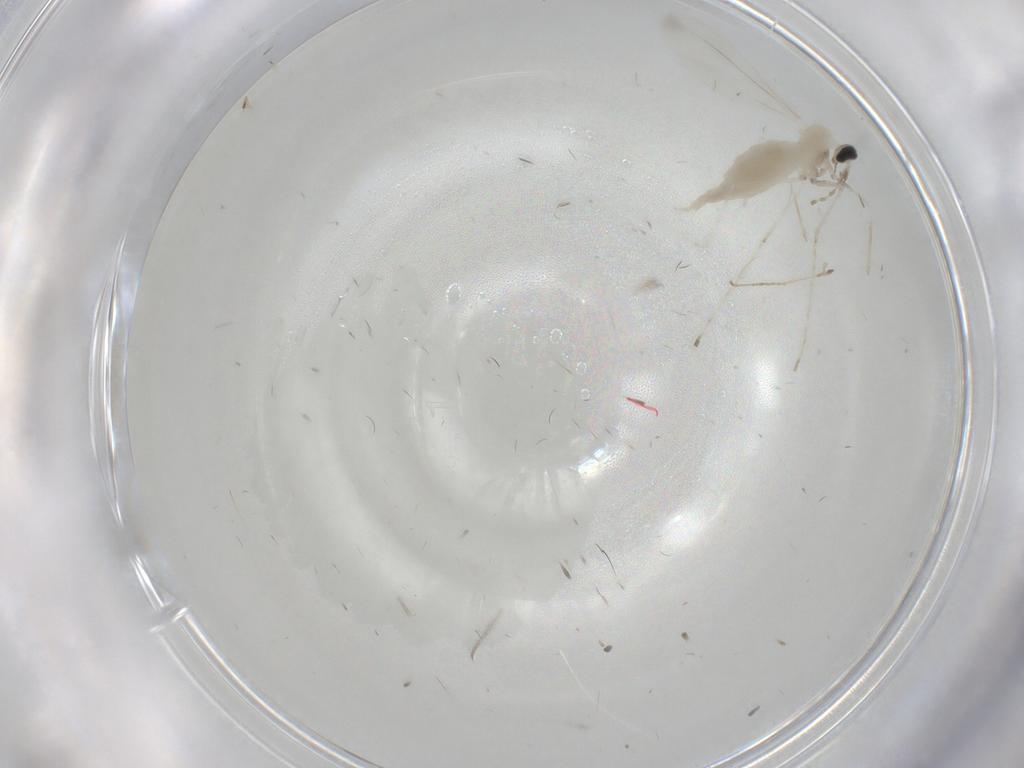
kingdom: Animalia
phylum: Arthropoda
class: Insecta
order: Diptera
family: Cecidomyiidae
